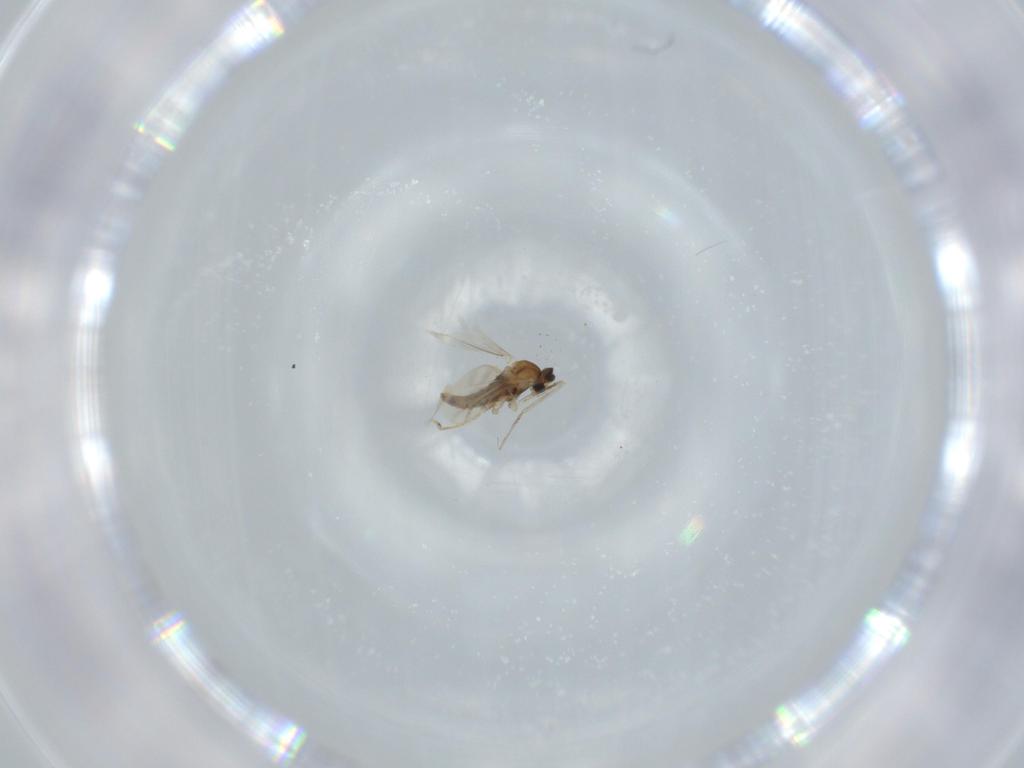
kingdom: Animalia
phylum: Arthropoda
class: Insecta
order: Diptera
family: Cecidomyiidae
